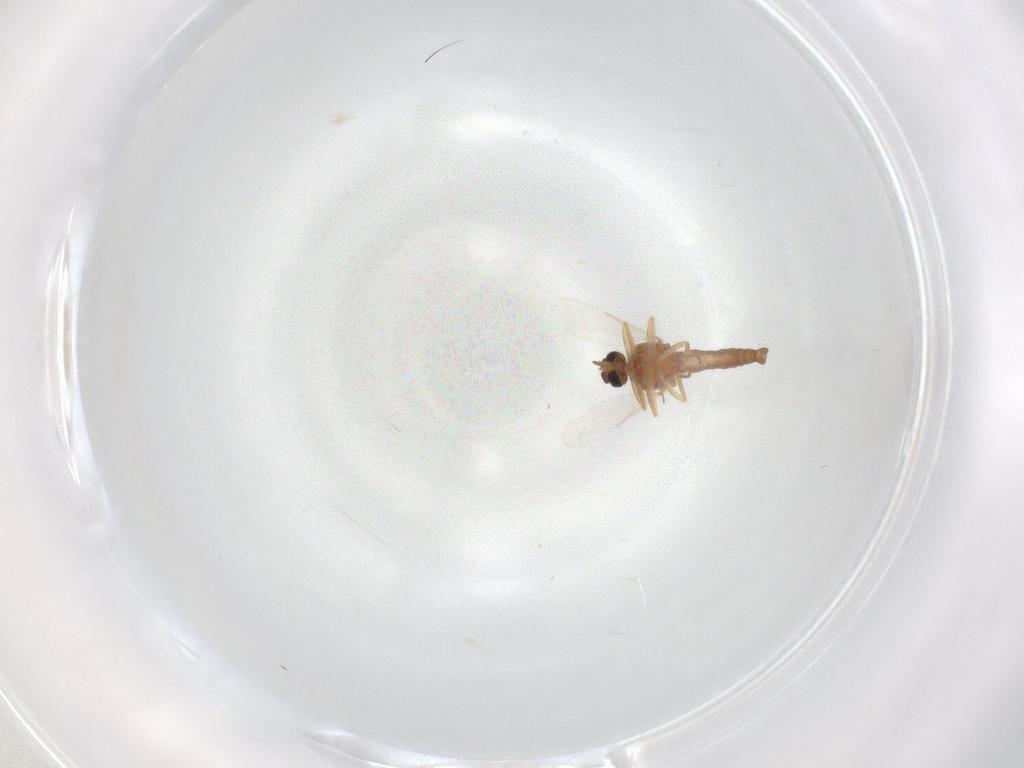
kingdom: Animalia
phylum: Arthropoda
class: Insecta
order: Diptera
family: Ceratopogonidae
